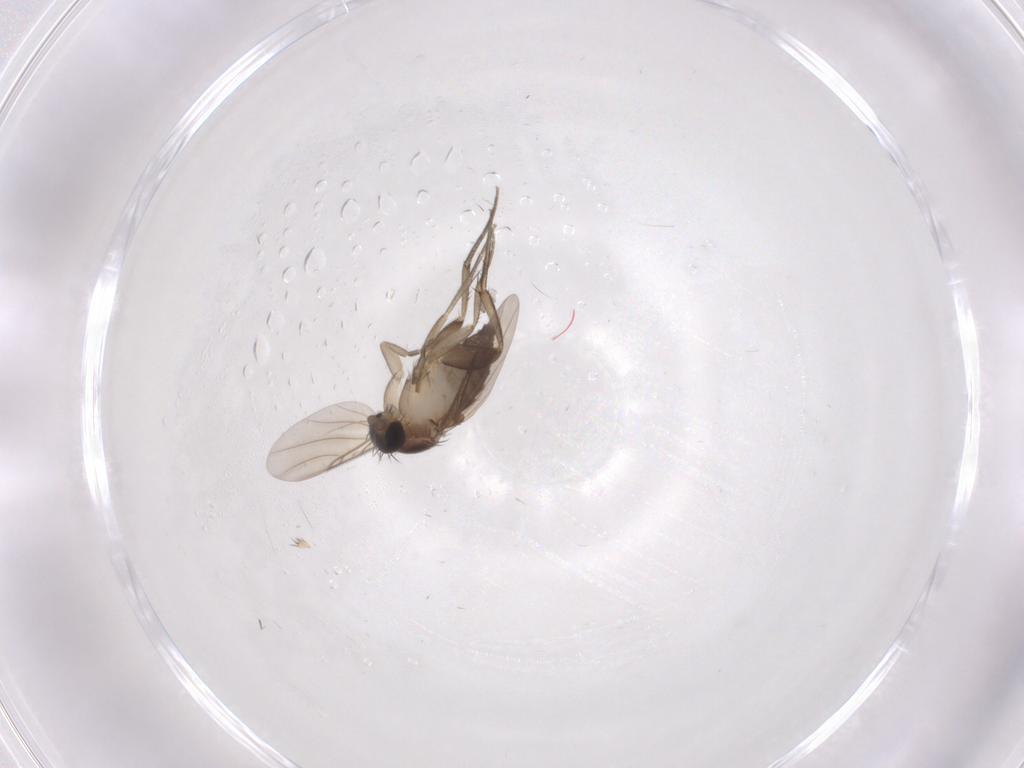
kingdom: Animalia
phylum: Arthropoda
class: Insecta
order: Diptera
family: Phoridae
